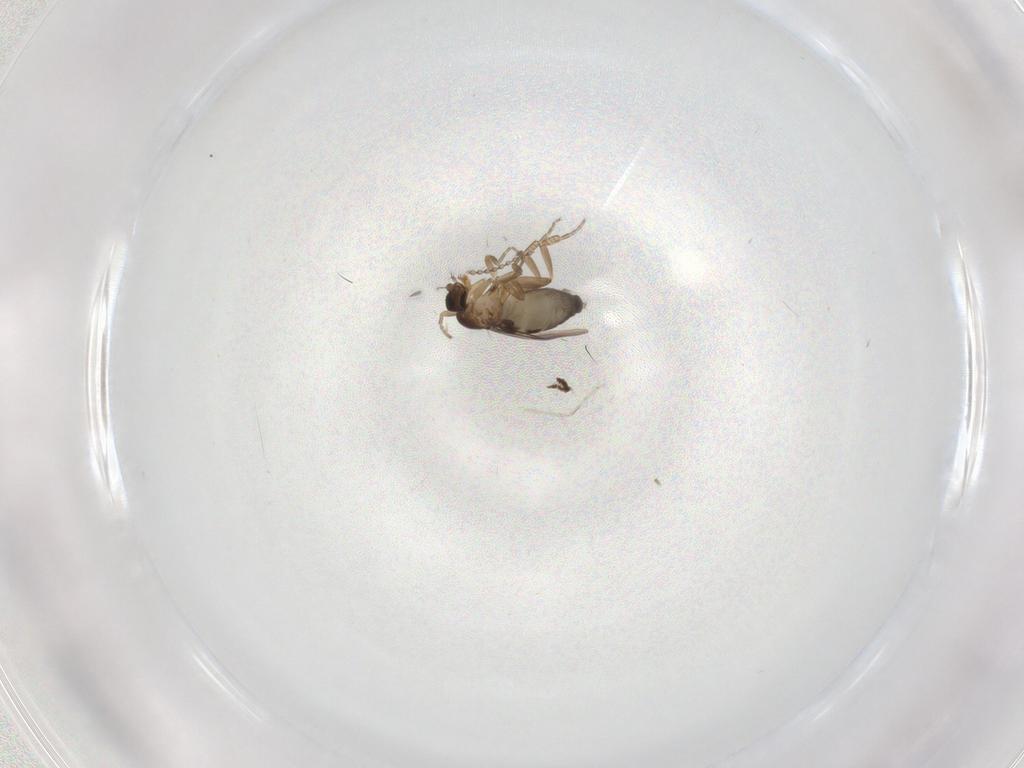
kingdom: Animalia
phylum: Arthropoda
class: Insecta
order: Diptera
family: Cecidomyiidae
